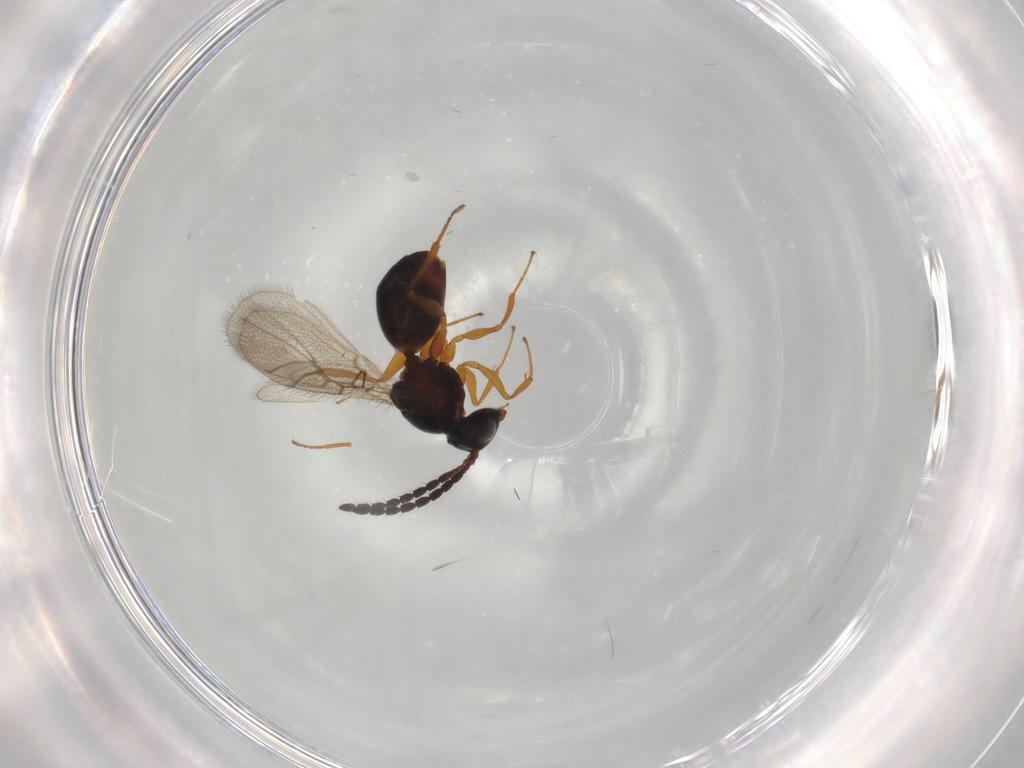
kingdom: Animalia
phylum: Arthropoda
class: Insecta
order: Hymenoptera
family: Figitidae
